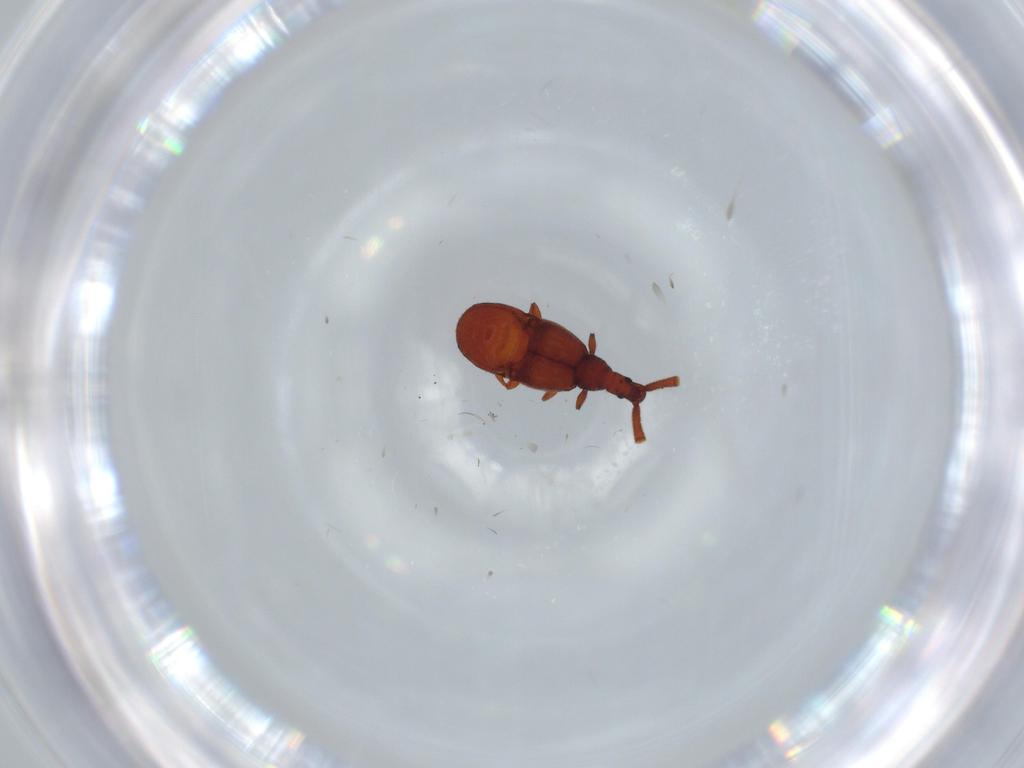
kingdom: Animalia
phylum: Arthropoda
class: Insecta
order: Coleoptera
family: Staphylinidae
